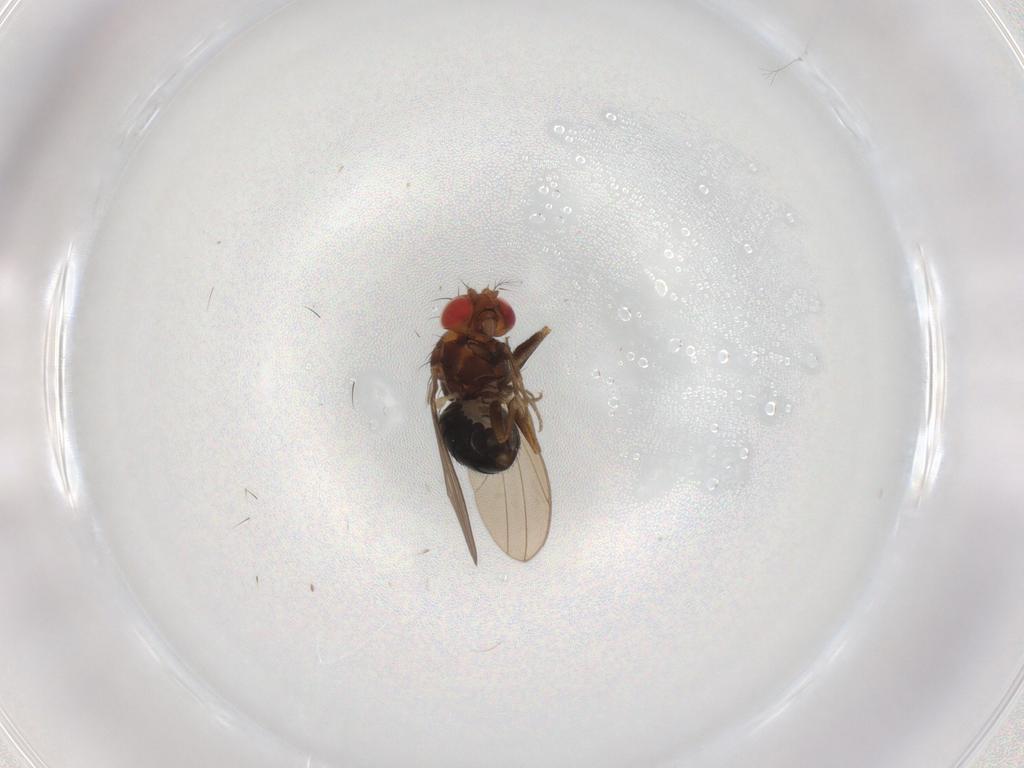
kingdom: Animalia
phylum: Arthropoda
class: Insecta
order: Diptera
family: Drosophilidae
